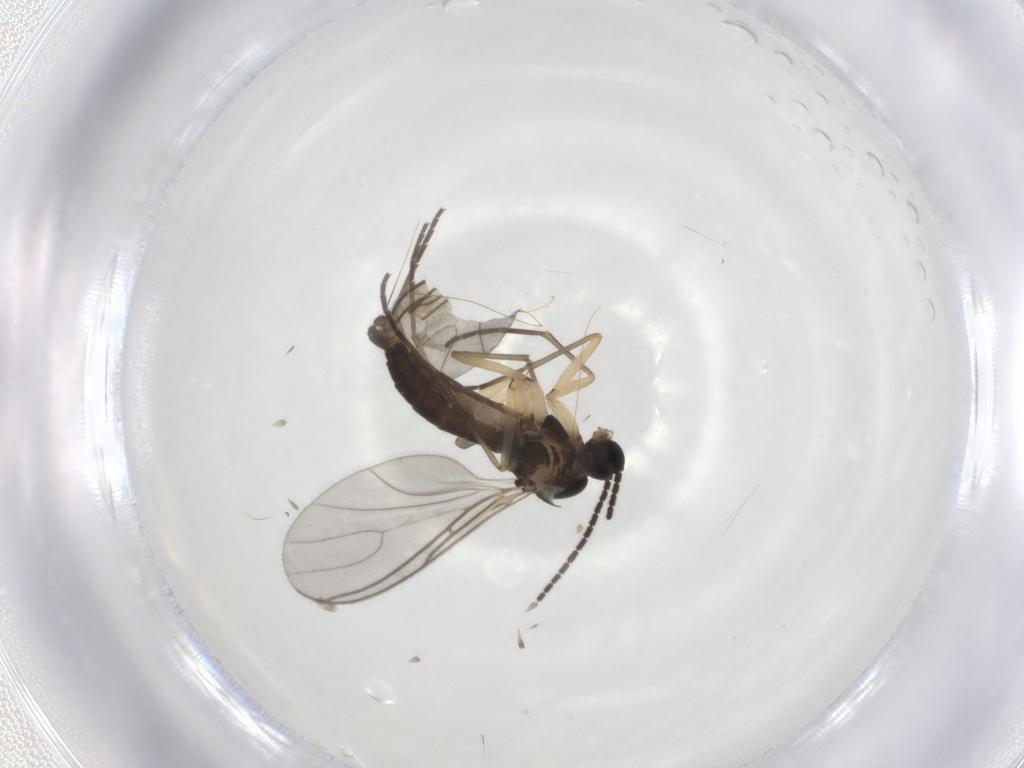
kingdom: Animalia
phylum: Arthropoda
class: Insecta
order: Diptera
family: Sciaridae
